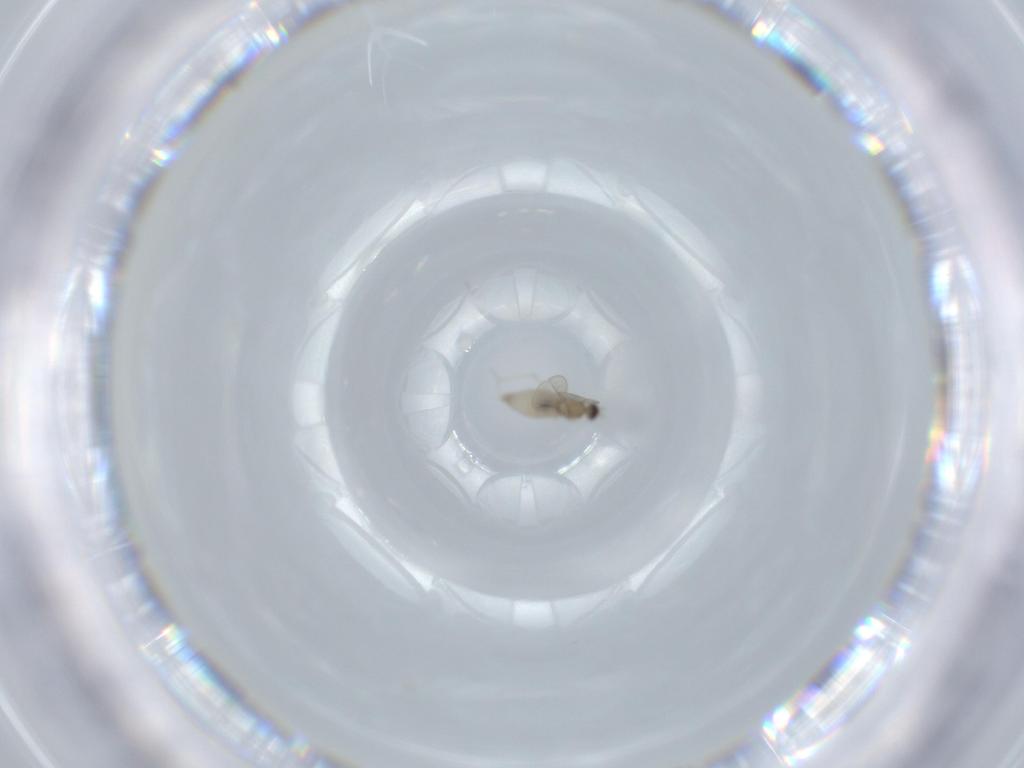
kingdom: Animalia
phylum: Arthropoda
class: Insecta
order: Diptera
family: Cecidomyiidae
